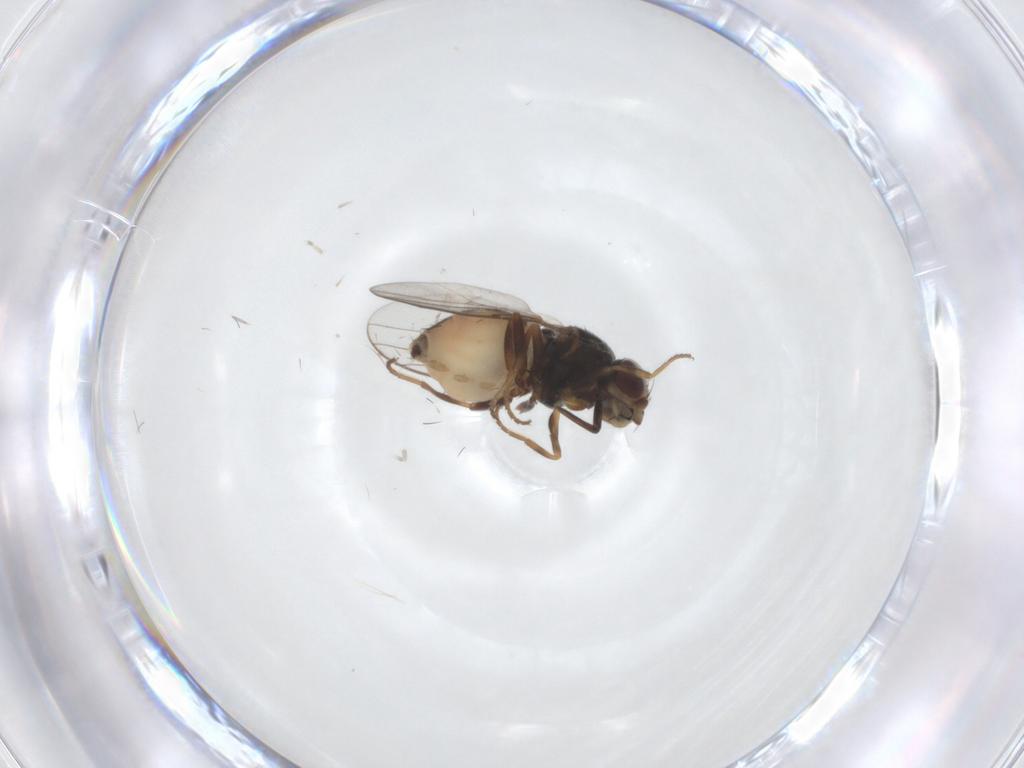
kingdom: Animalia
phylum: Arthropoda
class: Insecta
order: Diptera
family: Chloropidae
